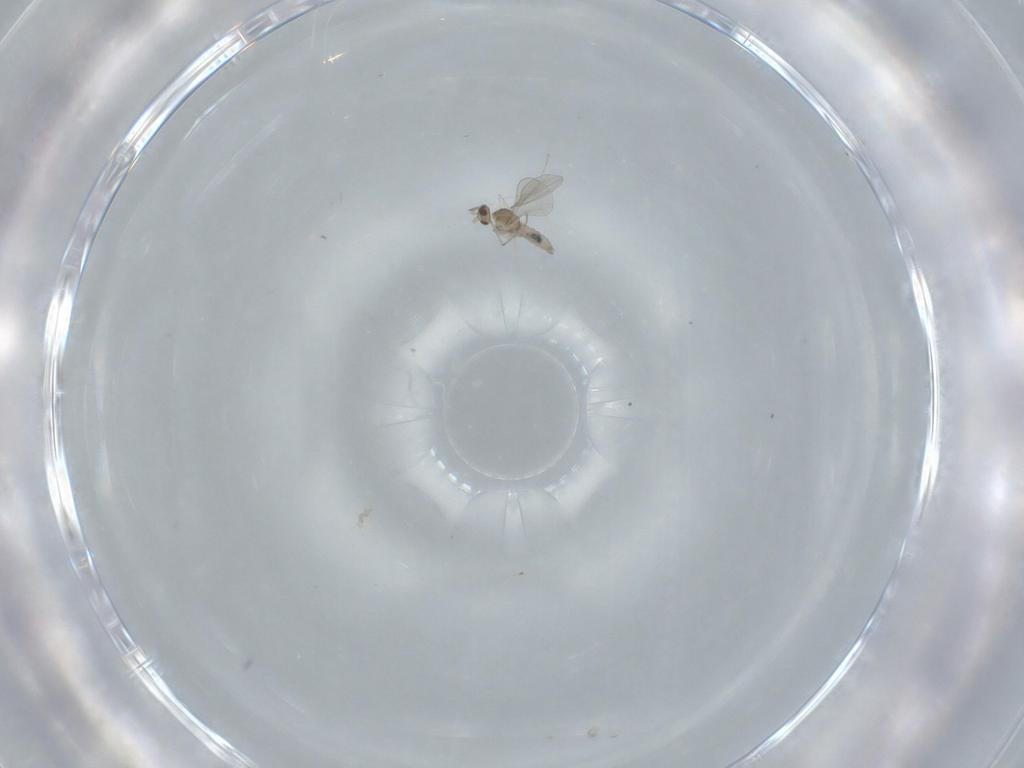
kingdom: Animalia
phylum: Arthropoda
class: Insecta
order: Diptera
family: Cecidomyiidae
